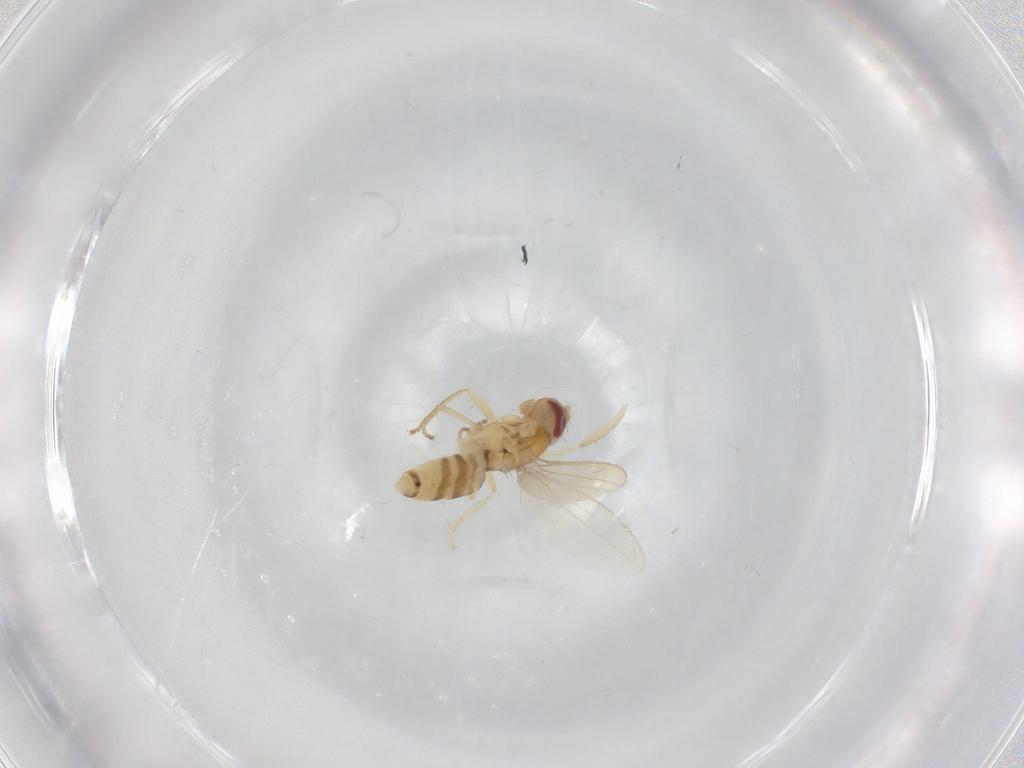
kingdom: Animalia
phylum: Arthropoda
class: Insecta
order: Diptera
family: Periscelididae
